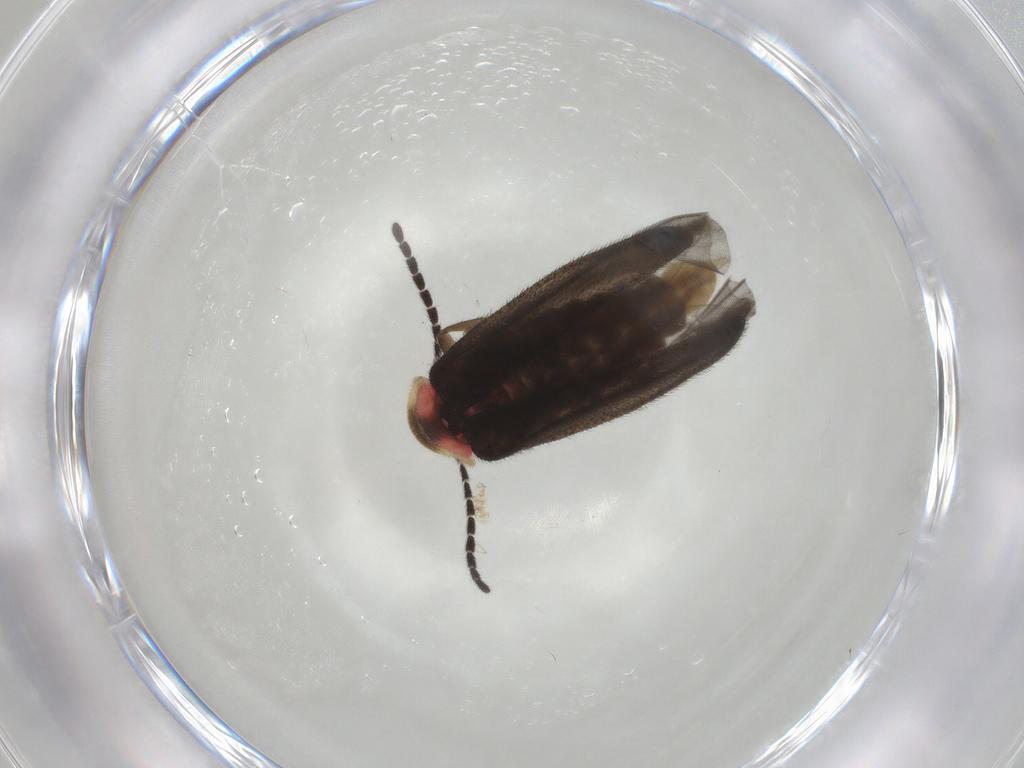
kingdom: Animalia
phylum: Arthropoda
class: Insecta
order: Coleoptera
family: Lampyridae
